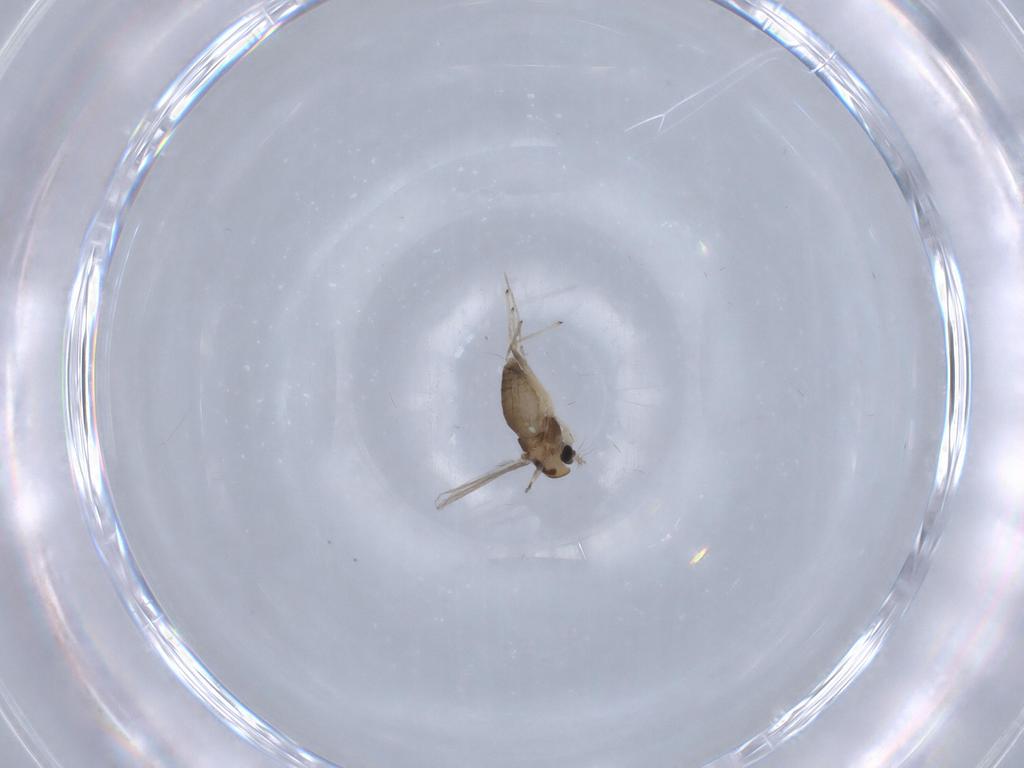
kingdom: Animalia
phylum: Arthropoda
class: Insecta
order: Diptera
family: Chironomidae
